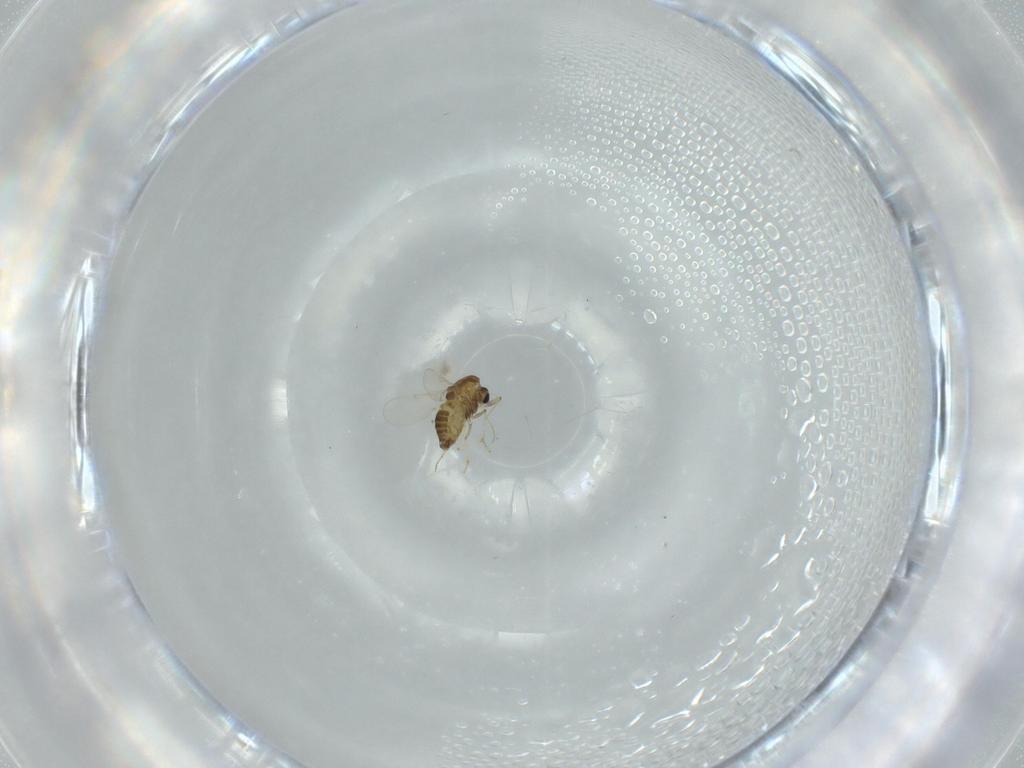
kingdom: Animalia
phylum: Arthropoda
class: Insecta
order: Diptera
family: Chironomidae
